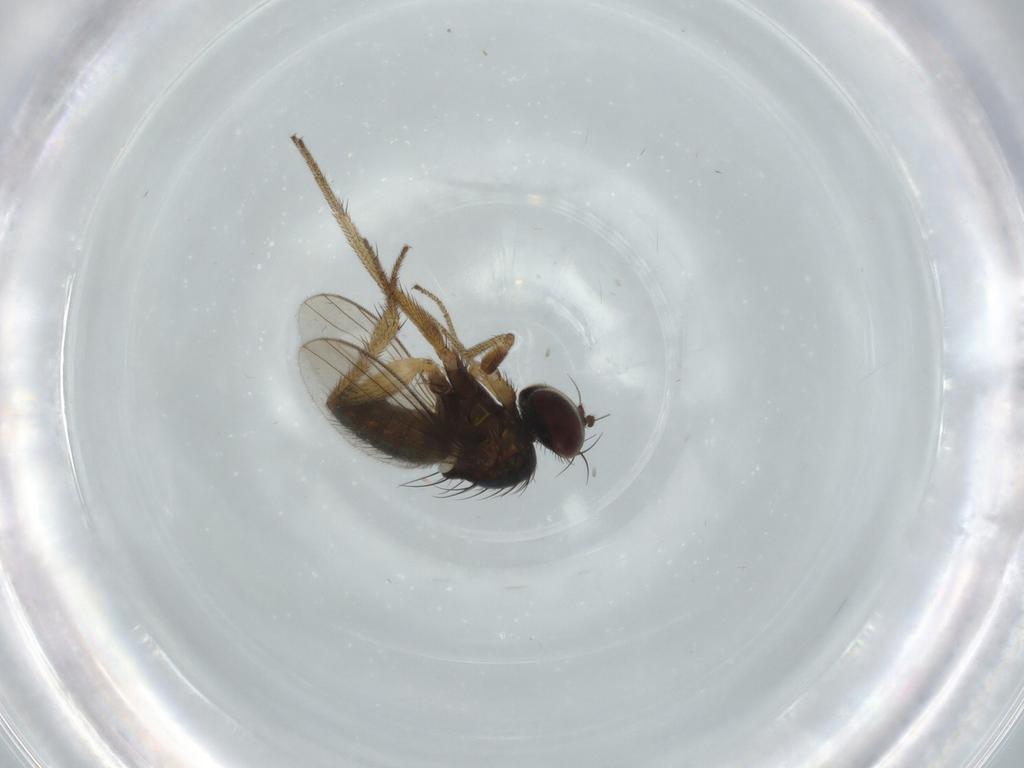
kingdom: Animalia
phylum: Arthropoda
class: Insecta
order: Diptera
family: Dolichopodidae
